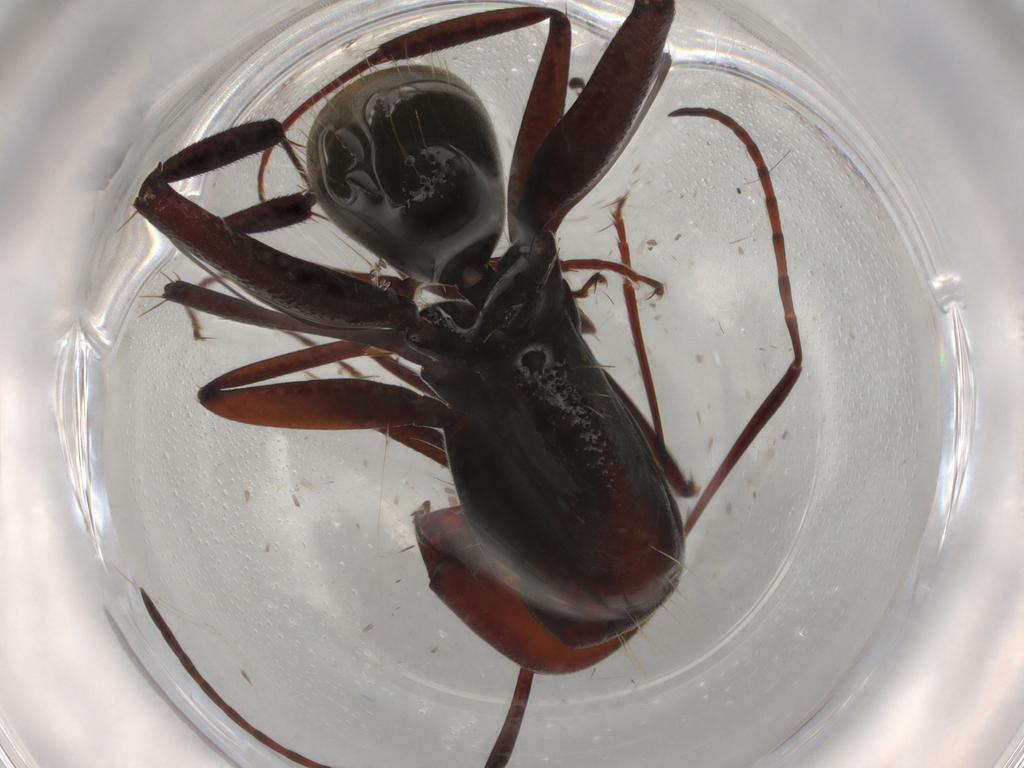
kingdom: Animalia
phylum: Arthropoda
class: Insecta
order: Hymenoptera
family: Formicidae
